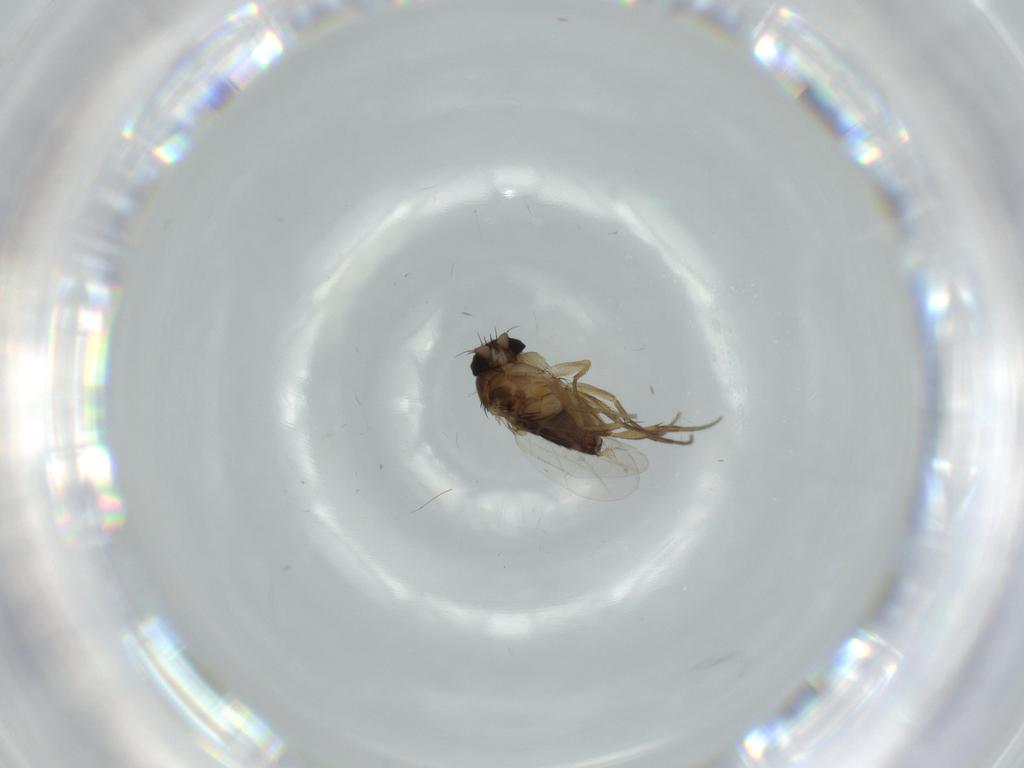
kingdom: Animalia
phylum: Arthropoda
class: Insecta
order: Diptera
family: Phoridae
